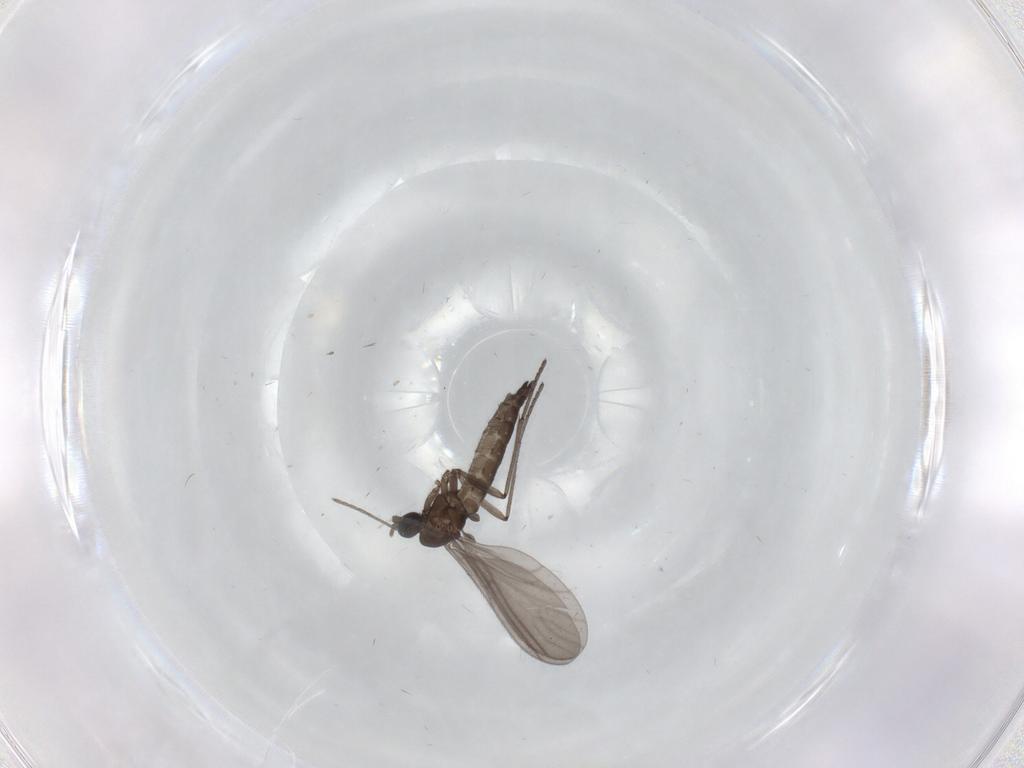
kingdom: Animalia
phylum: Arthropoda
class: Insecta
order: Diptera
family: Sciaridae
